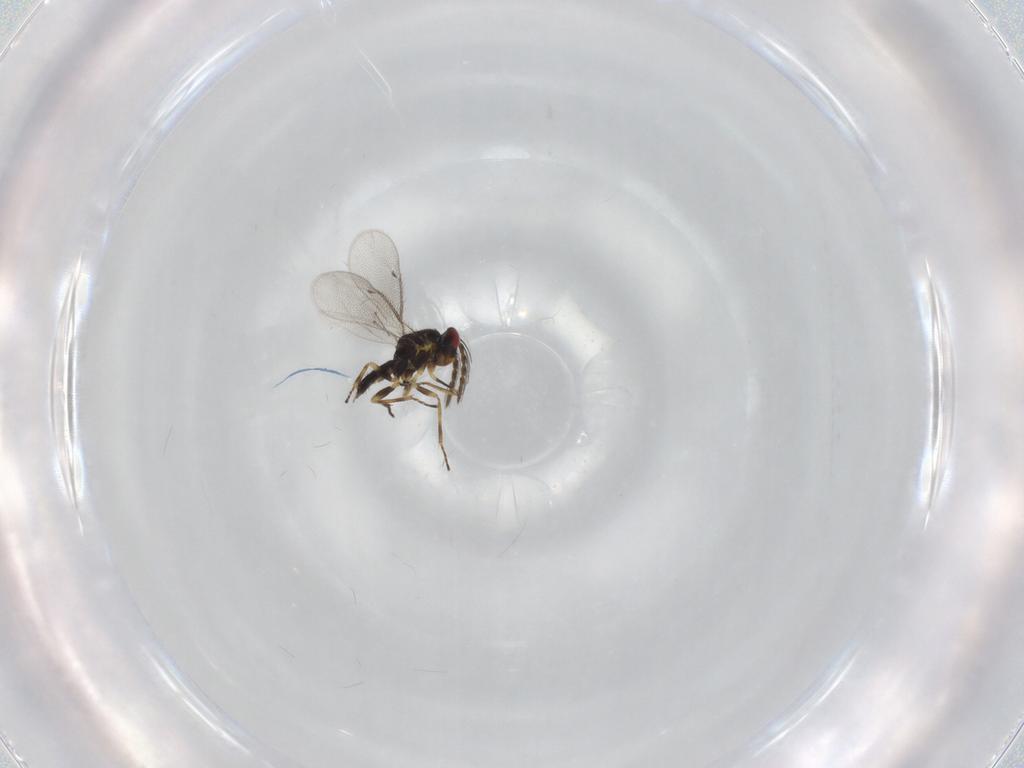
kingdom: Animalia
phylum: Arthropoda
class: Insecta
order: Hymenoptera
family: Eulophidae
